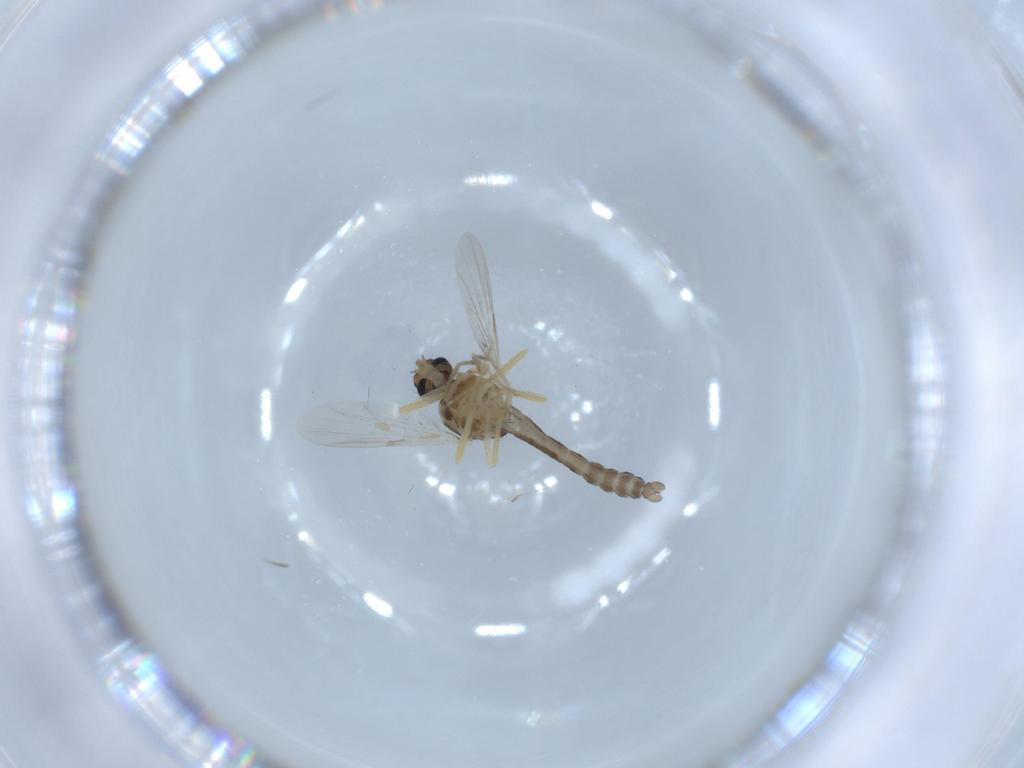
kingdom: Animalia
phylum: Arthropoda
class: Insecta
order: Diptera
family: Ceratopogonidae
